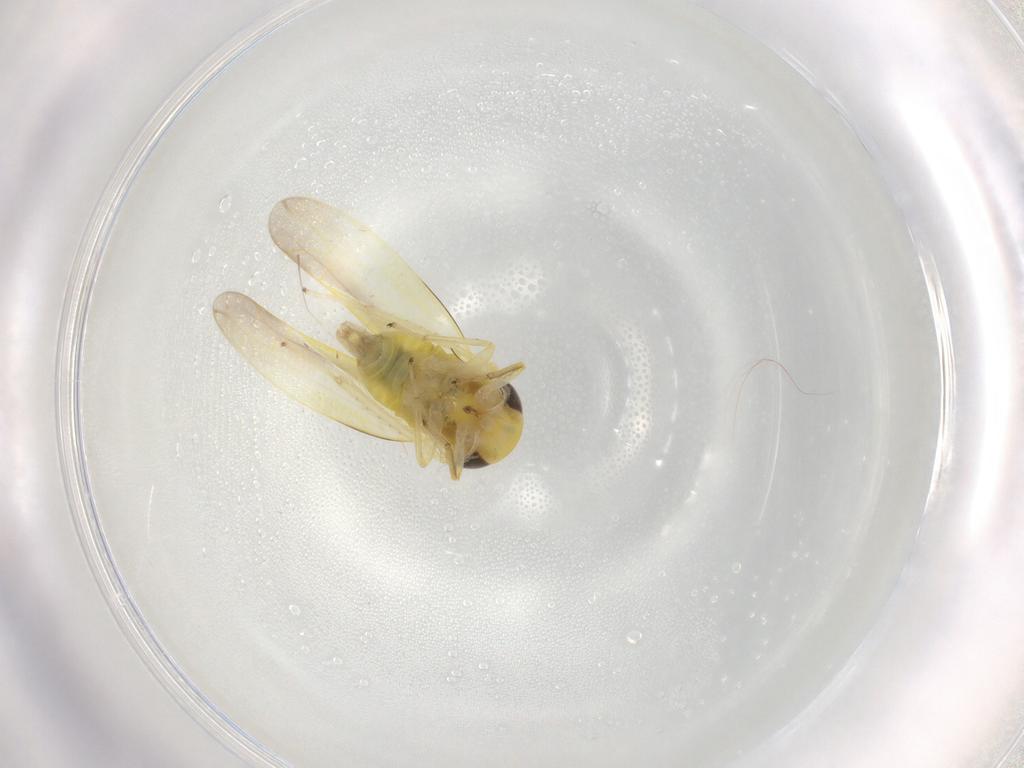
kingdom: Animalia
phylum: Arthropoda
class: Insecta
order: Hemiptera
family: Cicadellidae
